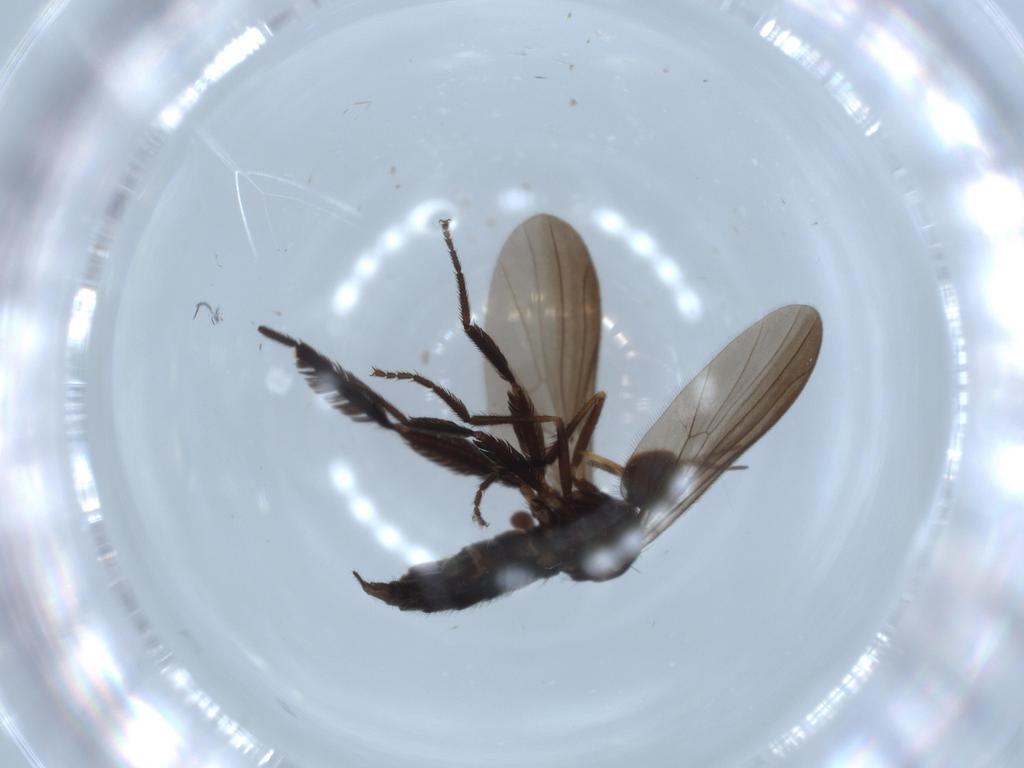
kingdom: Animalia
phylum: Arthropoda
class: Insecta
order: Diptera
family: Empididae
